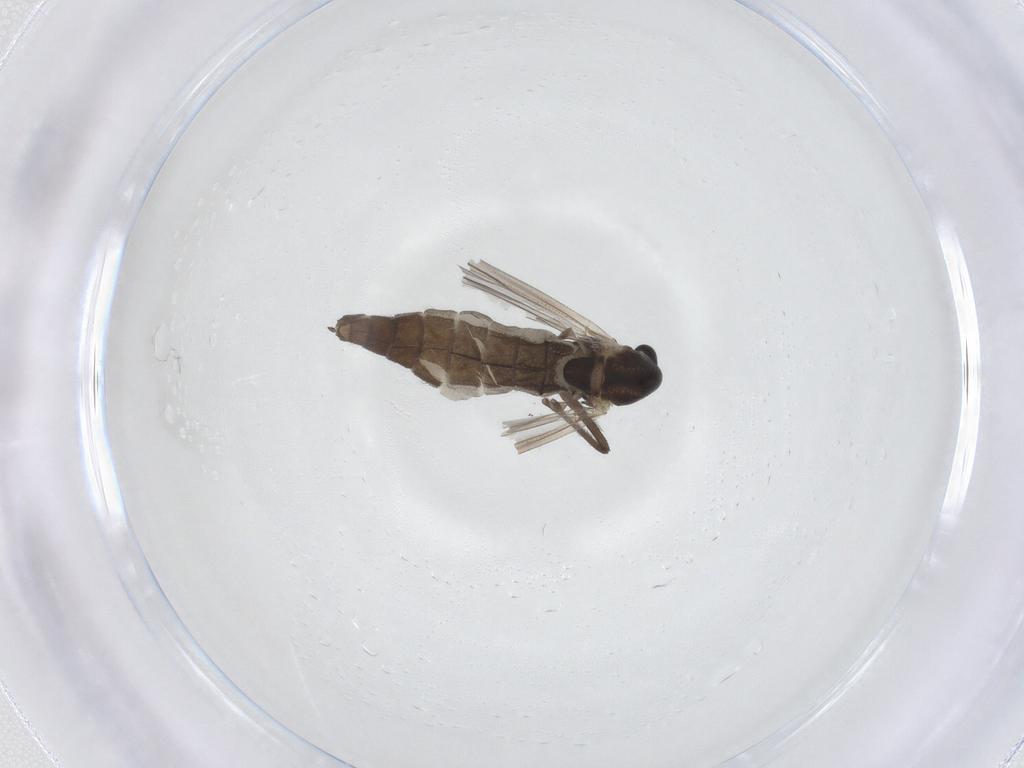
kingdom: Animalia
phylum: Arthropoda
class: Insecta
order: Diptera
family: Chironomidae
